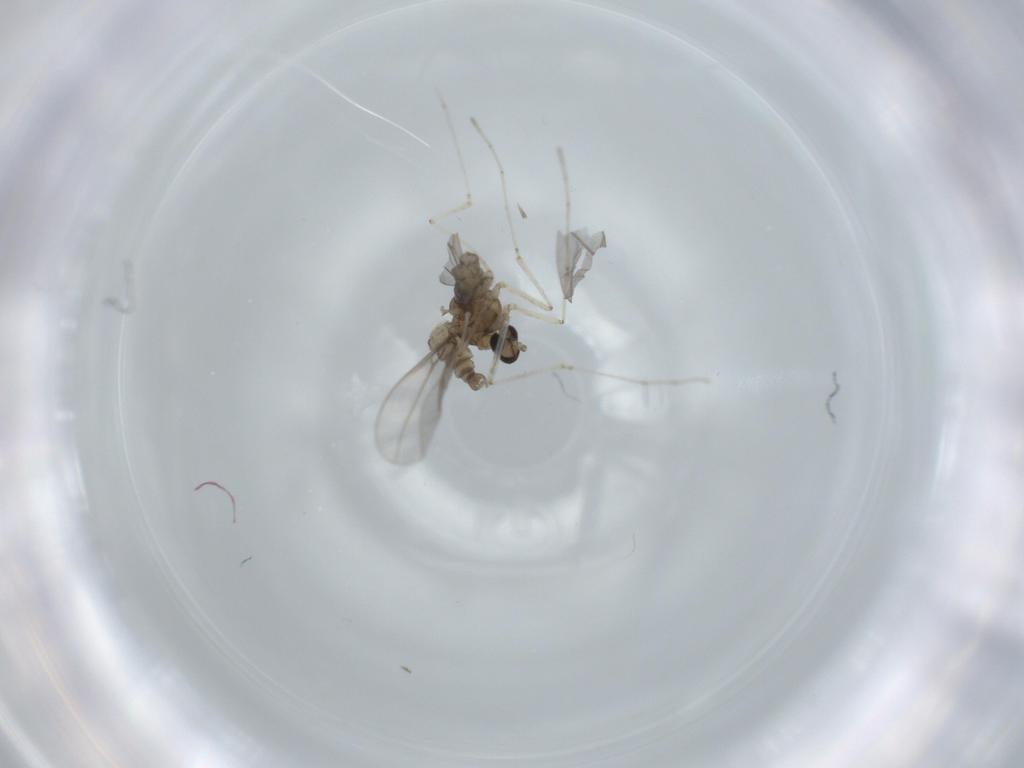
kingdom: Animalia
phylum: Arthropoda
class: Insecta
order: Diptera
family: Cecidomyiidae
